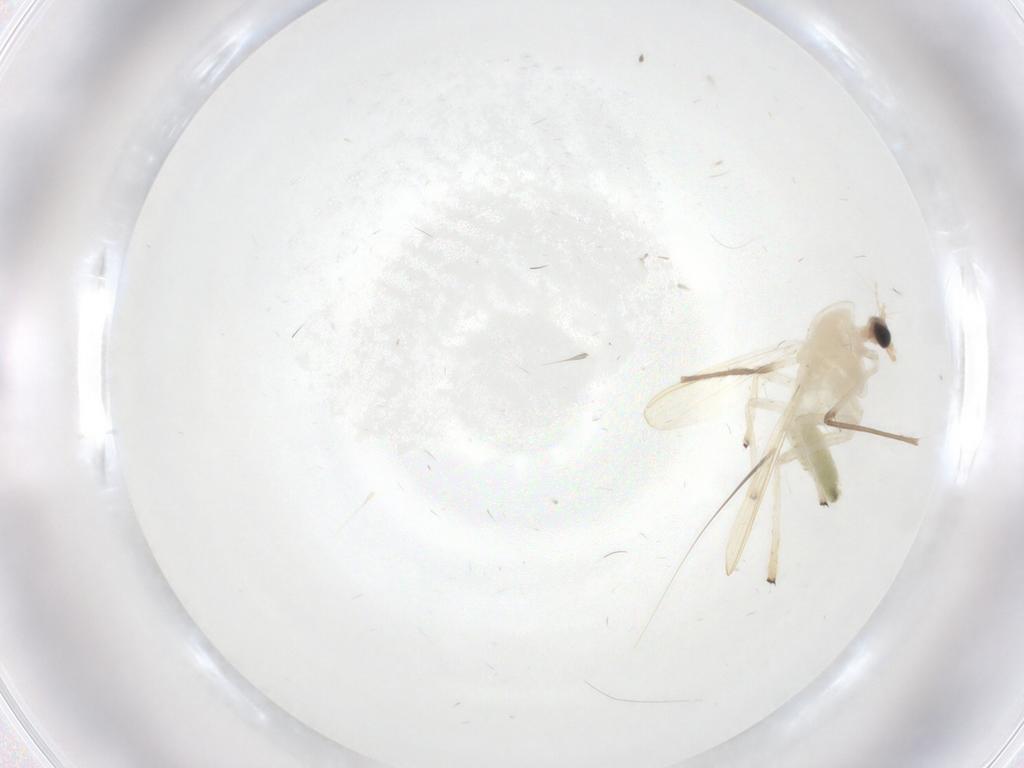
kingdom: Animalia
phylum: Arthropoda
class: Insecta
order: Diptera
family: Chironomidae
